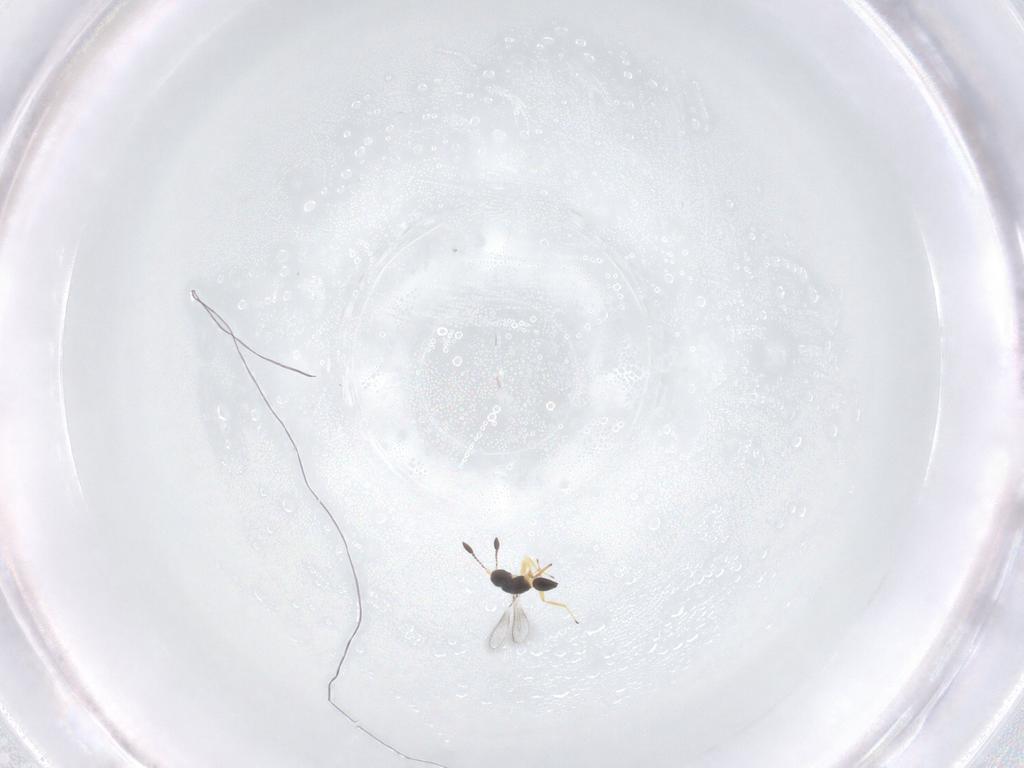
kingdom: Animalia
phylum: Arthropoda
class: Insecta
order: Hymenoptera
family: Mymaridae
